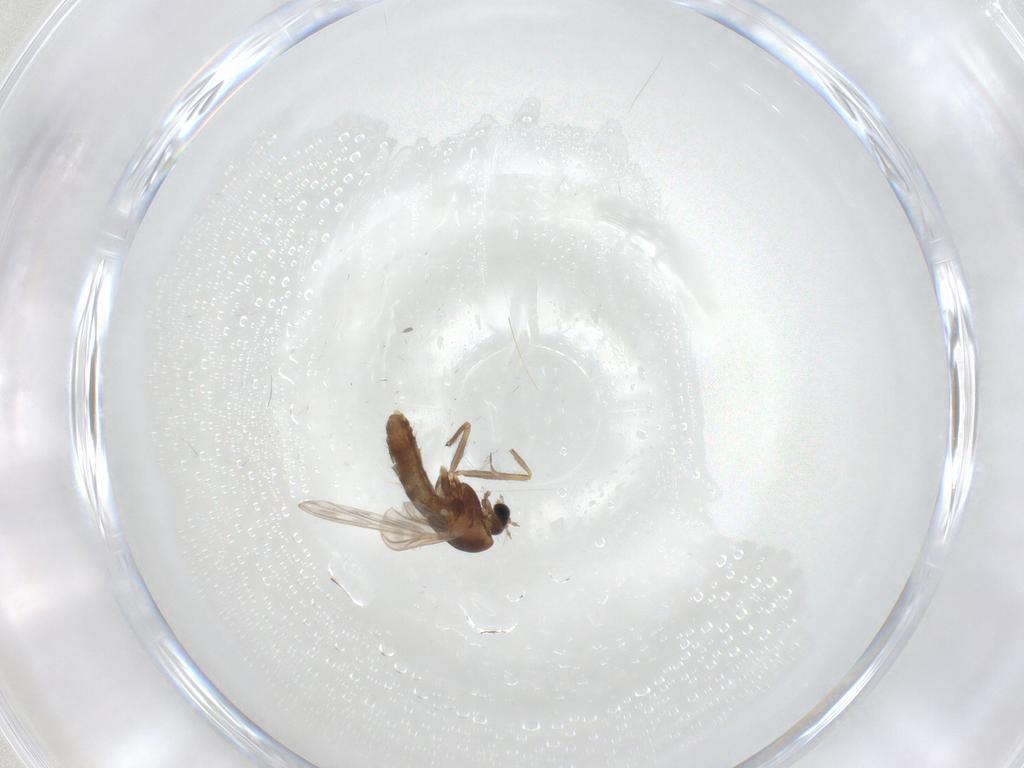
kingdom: Animalia
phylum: Arthropoda
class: Insecta
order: Diptera
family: Chironomidae
